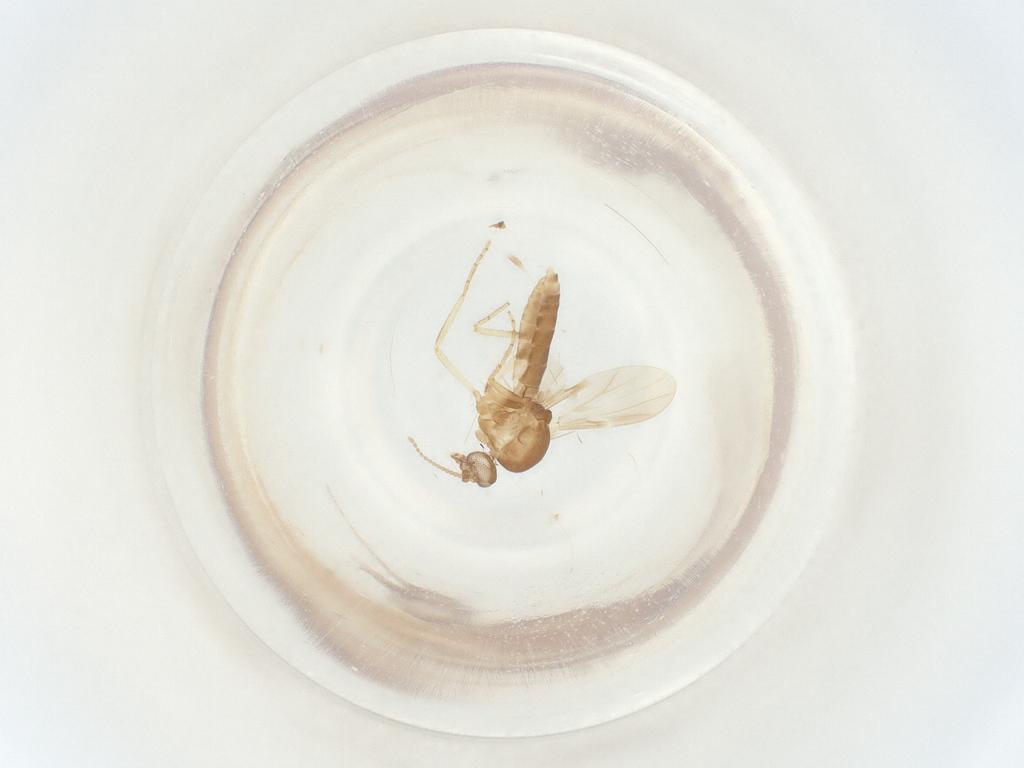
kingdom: Animalia
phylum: Arthropoda
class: Insecta
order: Diptera
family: Ceratopogonidae
